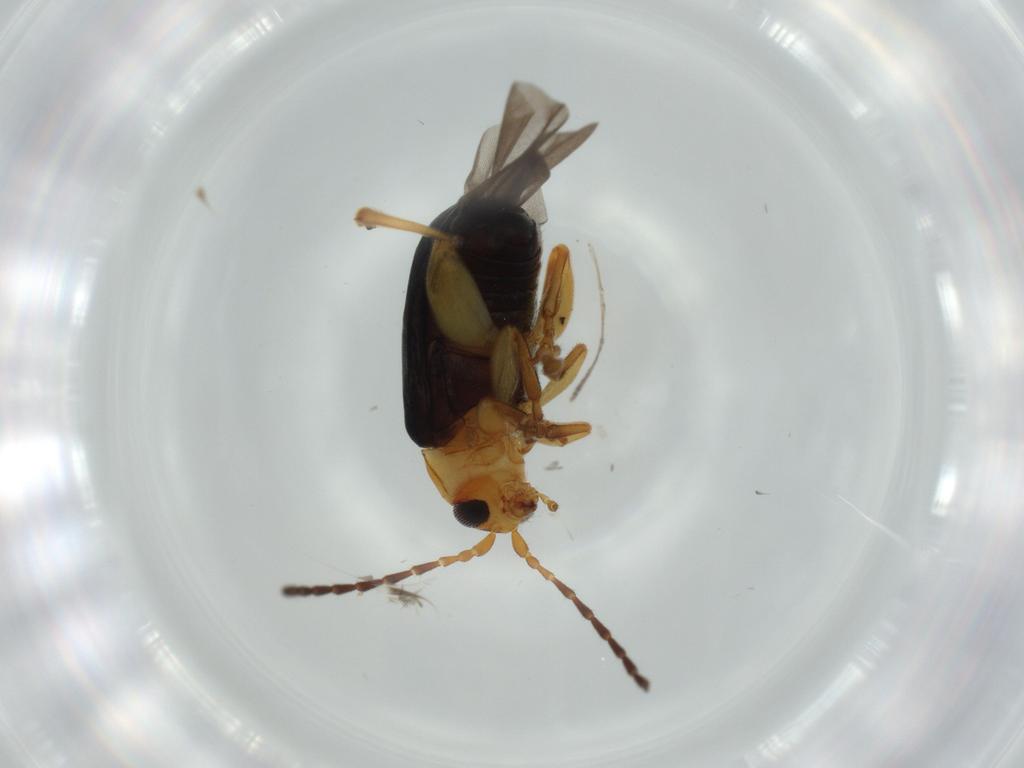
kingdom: Animalia
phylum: Arthropoda
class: Insecta
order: Coleoptera
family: Chrysomelidae
